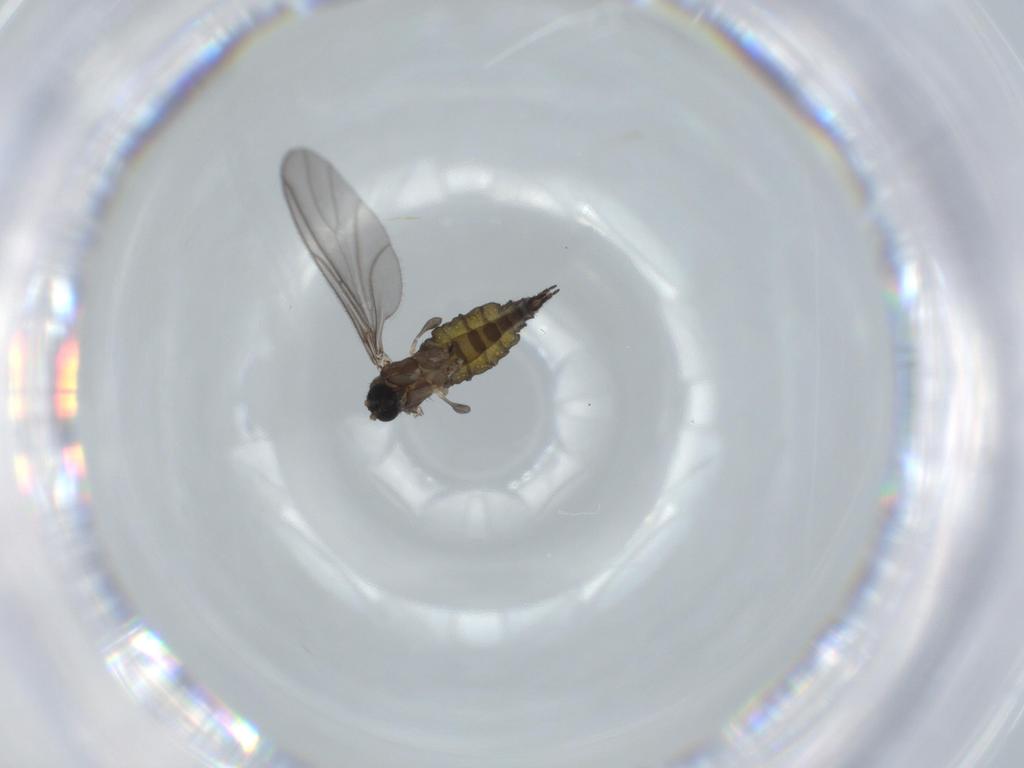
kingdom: Animalia
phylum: Arthropoda
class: Insecta
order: Diptera
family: Sciaridae
